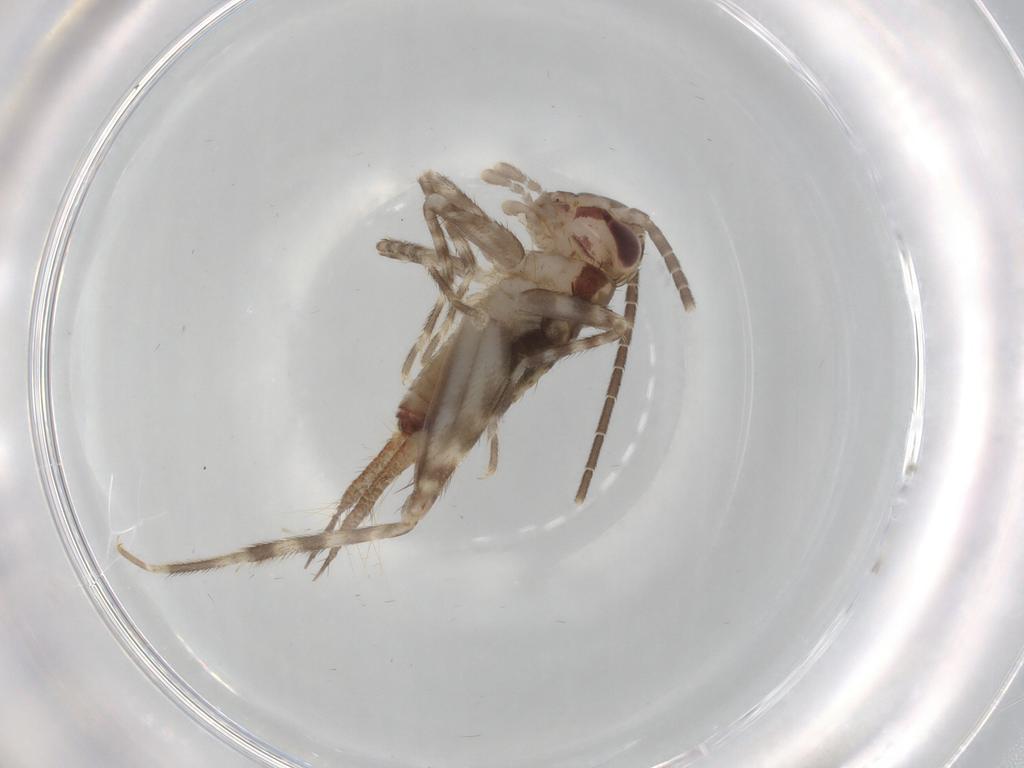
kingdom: Animalia
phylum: Arthropoda
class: Insecta
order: Orthoptera
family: Gryllidae
